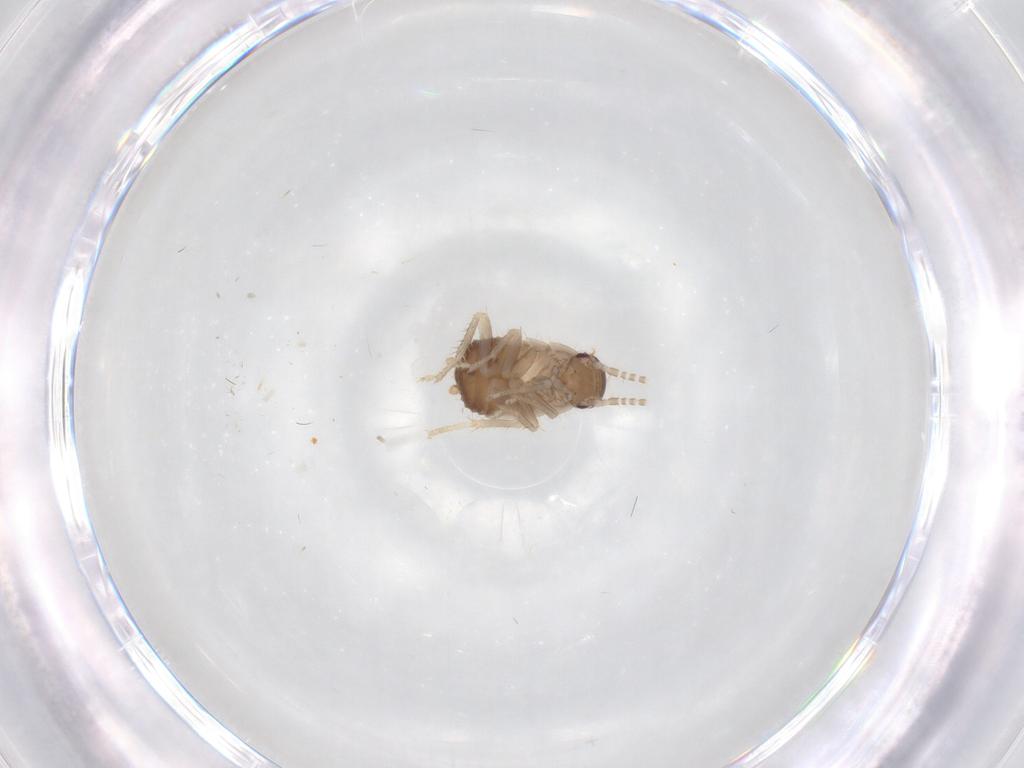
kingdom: Animalia
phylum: Arthropoda
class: Insecta
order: Blattodea
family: Ectobiidae
